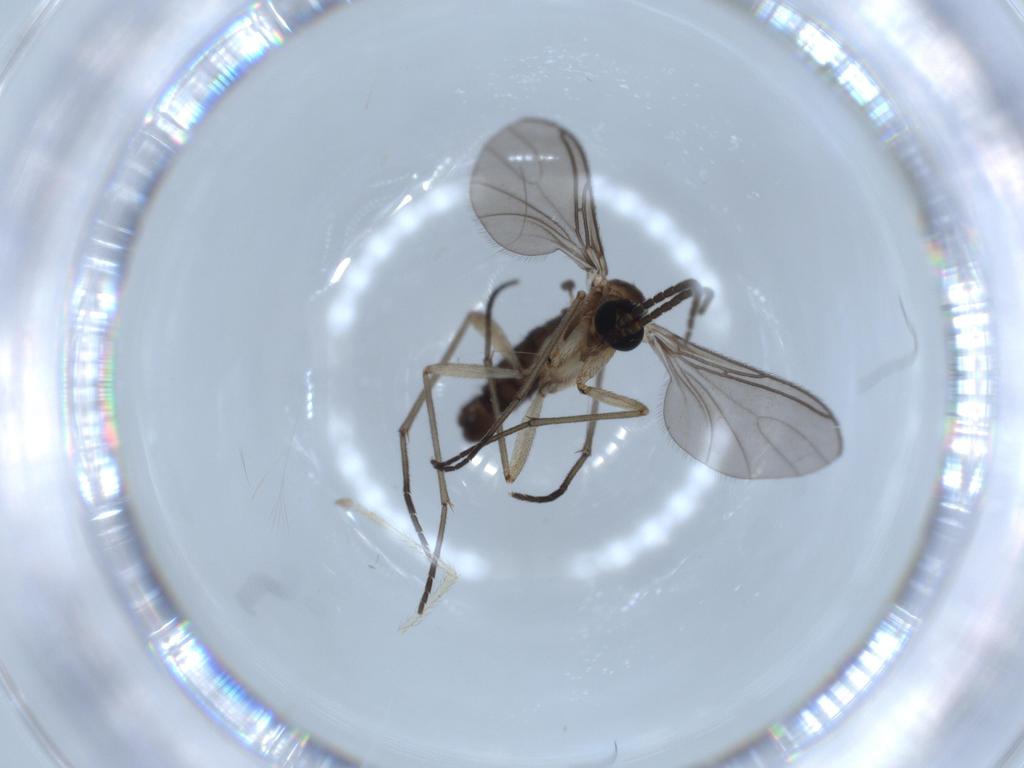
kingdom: Animalia
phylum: Arthropoda
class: Insecta
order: Diptera
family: Sciaridae
